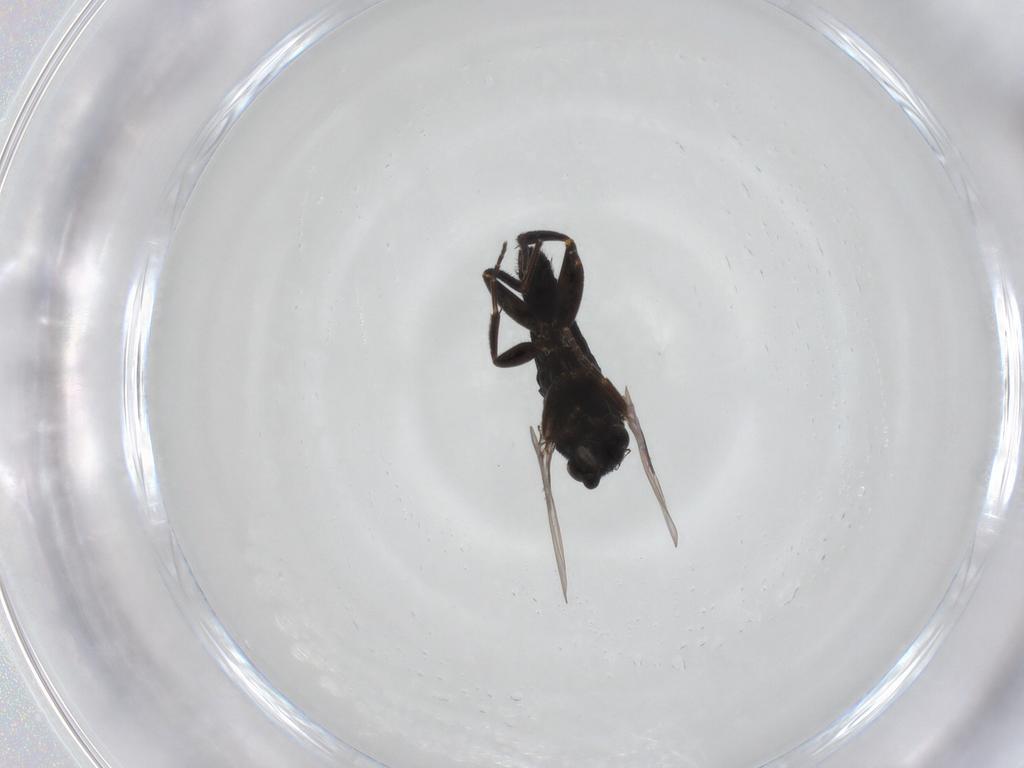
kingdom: Animalia
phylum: Arthropoda
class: Insecta
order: Diptera
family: Phoridae
